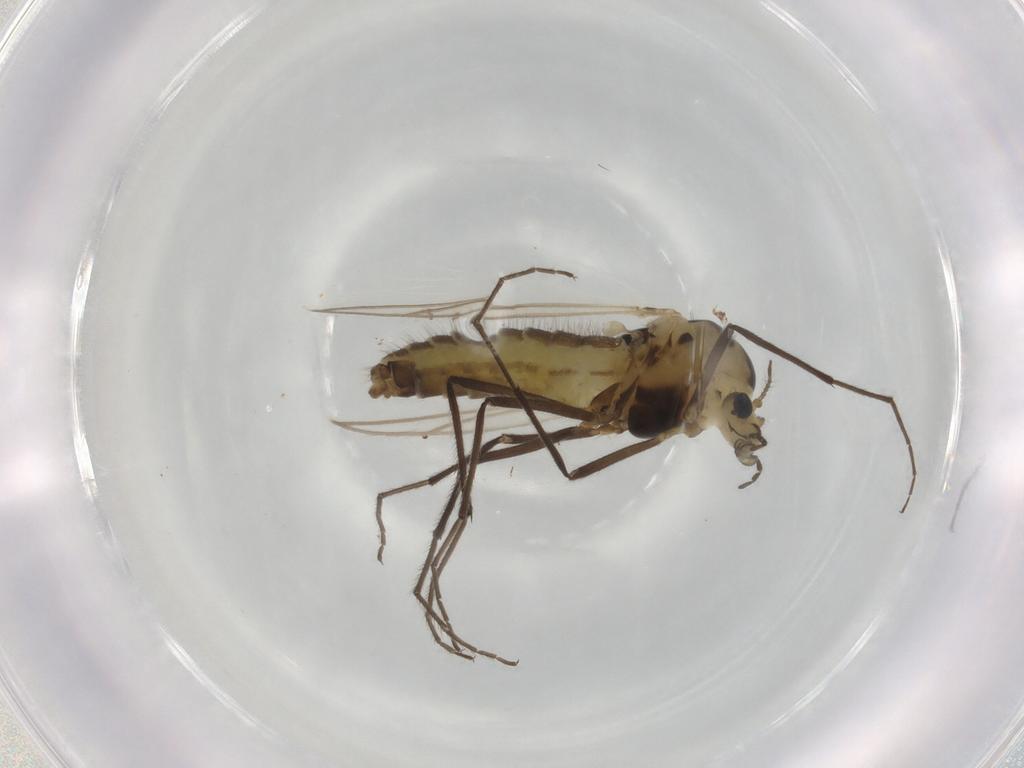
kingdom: Animalia
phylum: Arthropoda
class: Insecta
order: Diptera
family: Chironomidae
